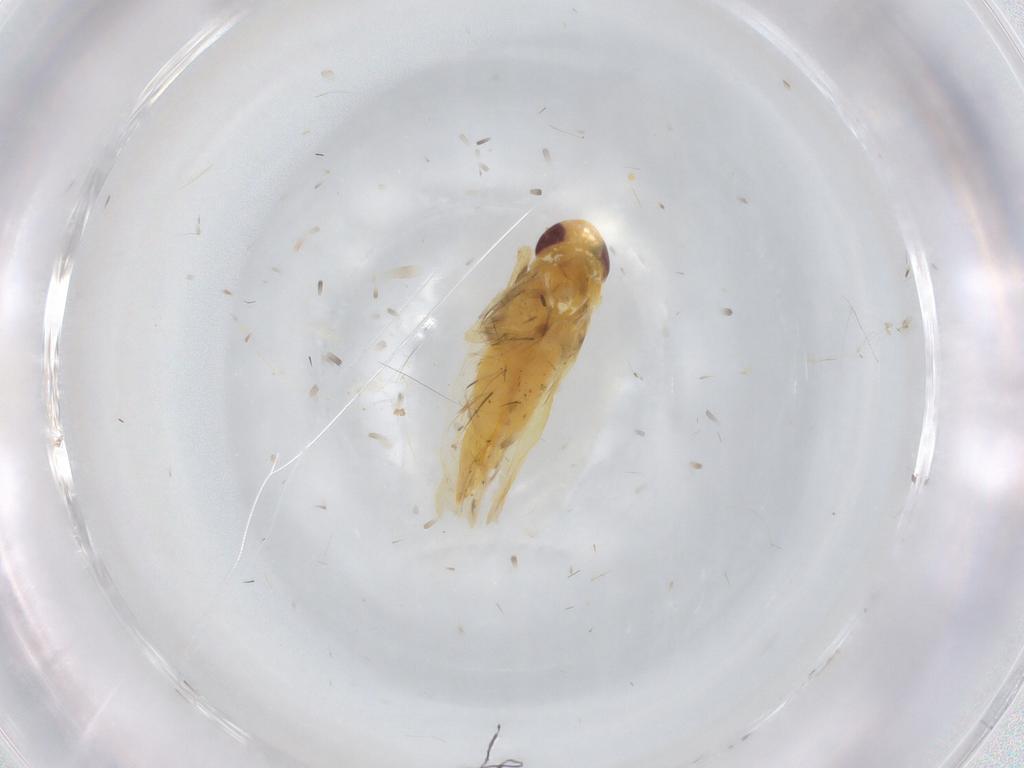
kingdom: Animalia
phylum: Arthropoda
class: Insecta
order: Hemiptera
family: Cicadellidae
